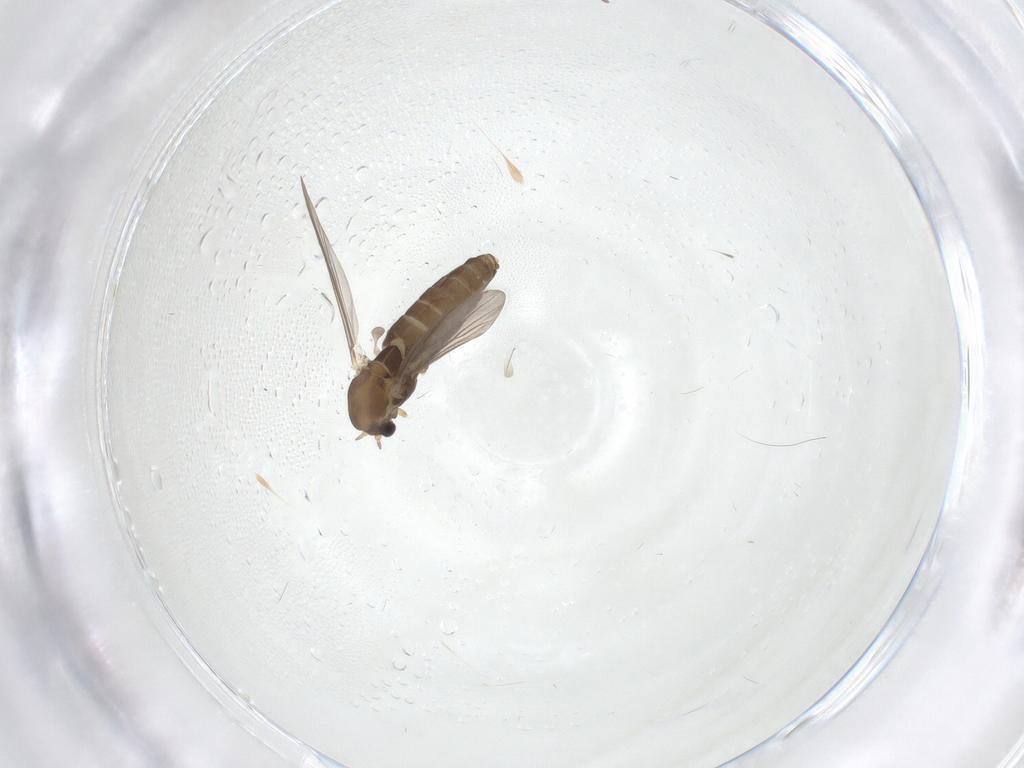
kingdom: Animalia
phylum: Arthropoda
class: Insecta
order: Diptera
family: Chironomidae
